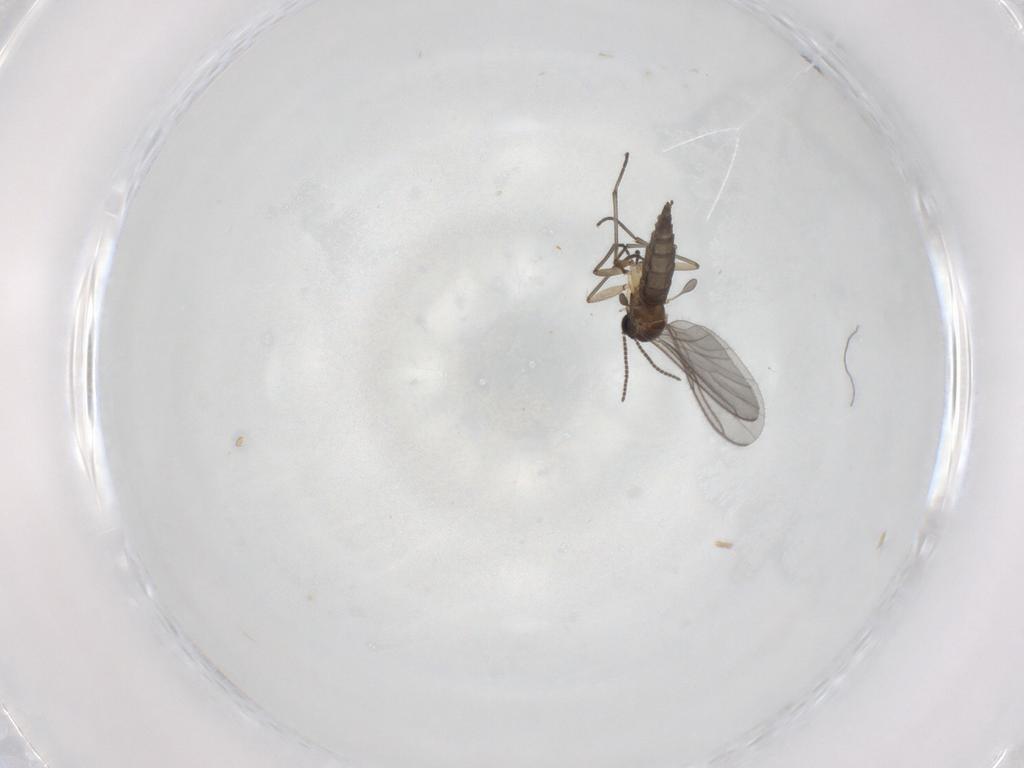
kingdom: Animalia
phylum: Arthropoda
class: Insecta
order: Diptera
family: Sciaridae
